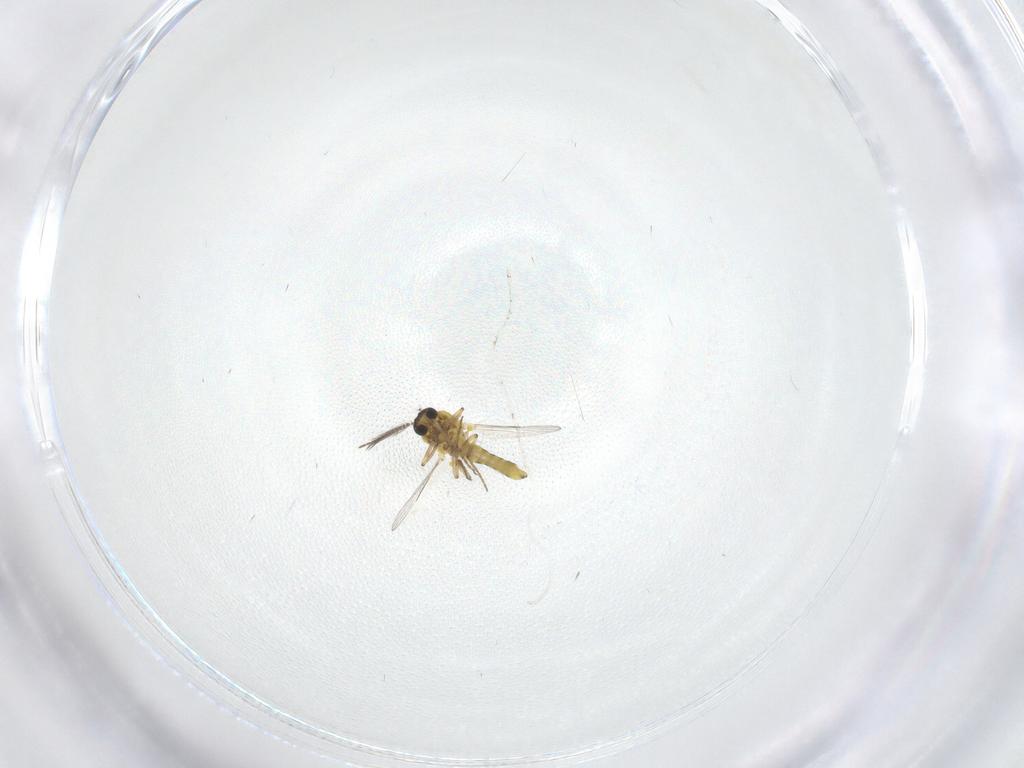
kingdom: Animalia
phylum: Arthropoda
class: Insecta
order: Diptera
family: Ceratopogonidae
